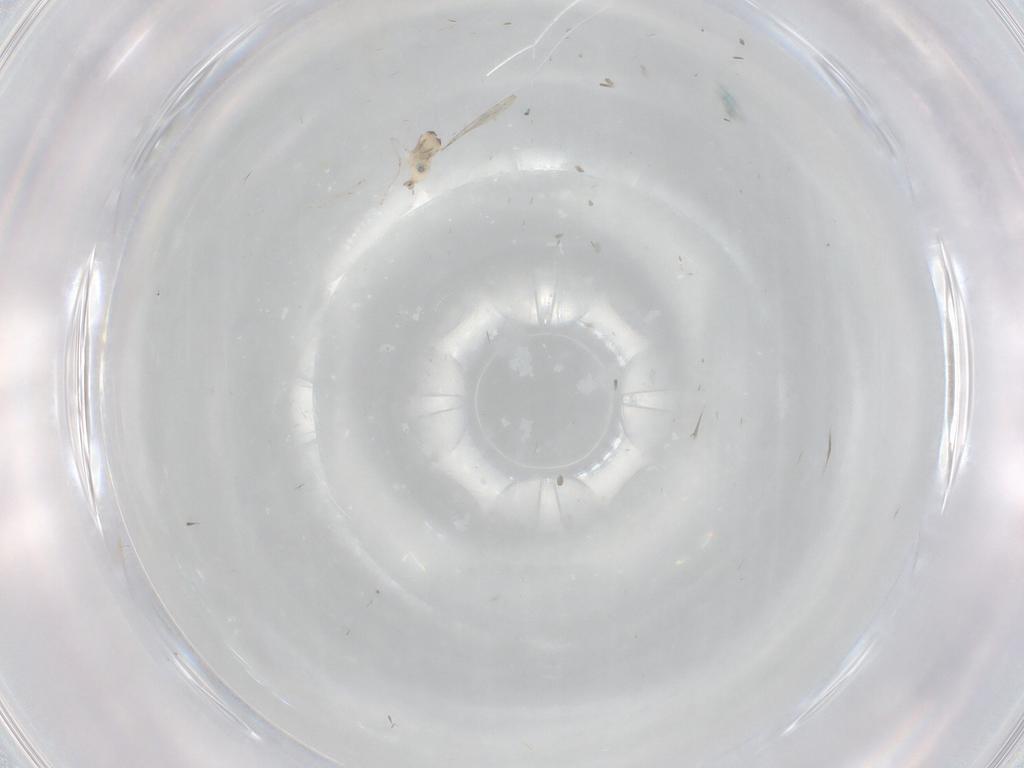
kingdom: Animalia
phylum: Arthropoda
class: Insecta
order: Diptera
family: Cecidomyiidae
